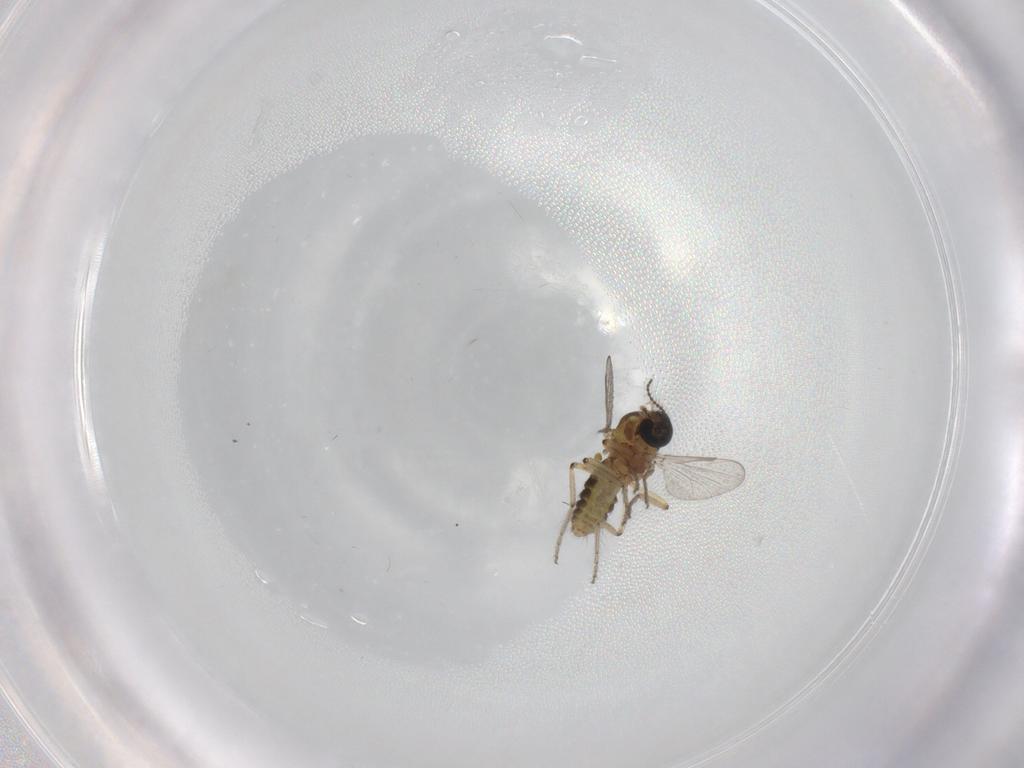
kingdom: Animalia
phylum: Arthropoda
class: Insecta
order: Diptera
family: Ceratopogonidae
